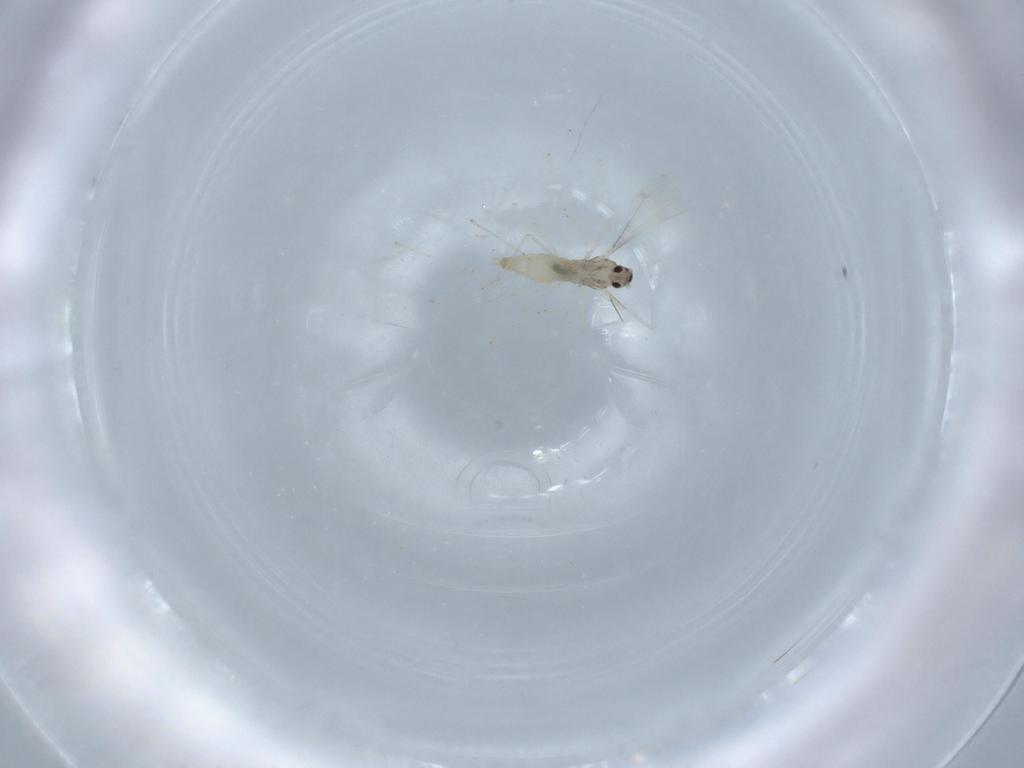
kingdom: Animalia
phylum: Arthropoda
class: Insecta
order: Diptera
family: Cecidomyiidae
